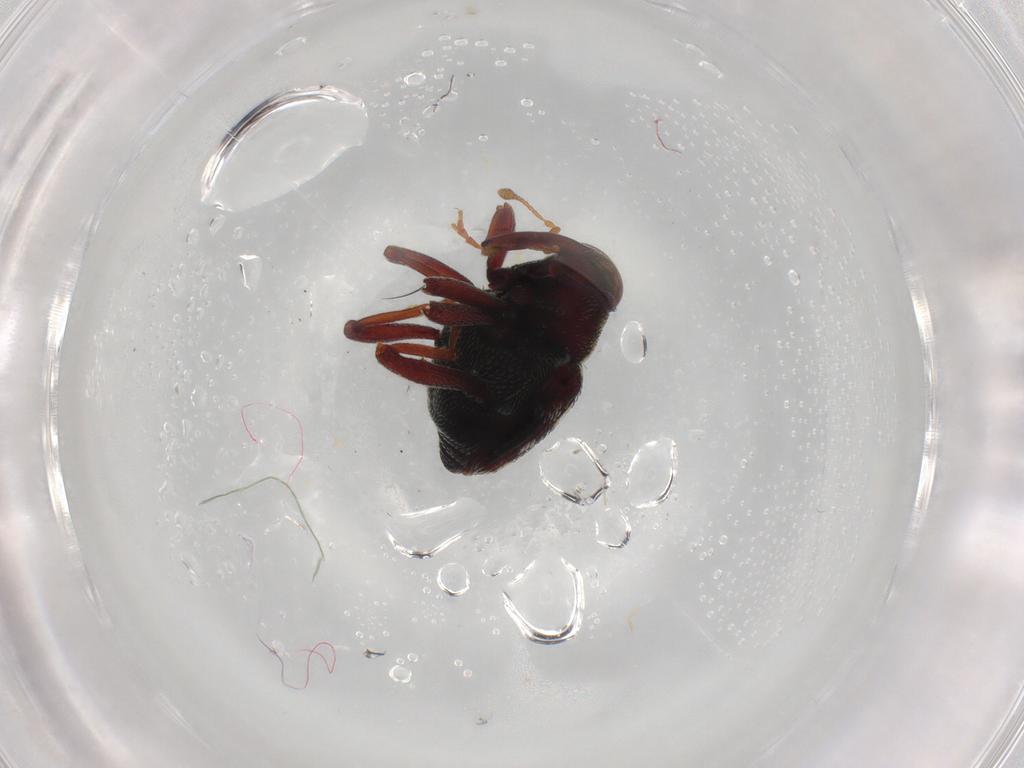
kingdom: Animalia
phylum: Arthropoda
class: Insecta
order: Coleoptera
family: Curculionidae
